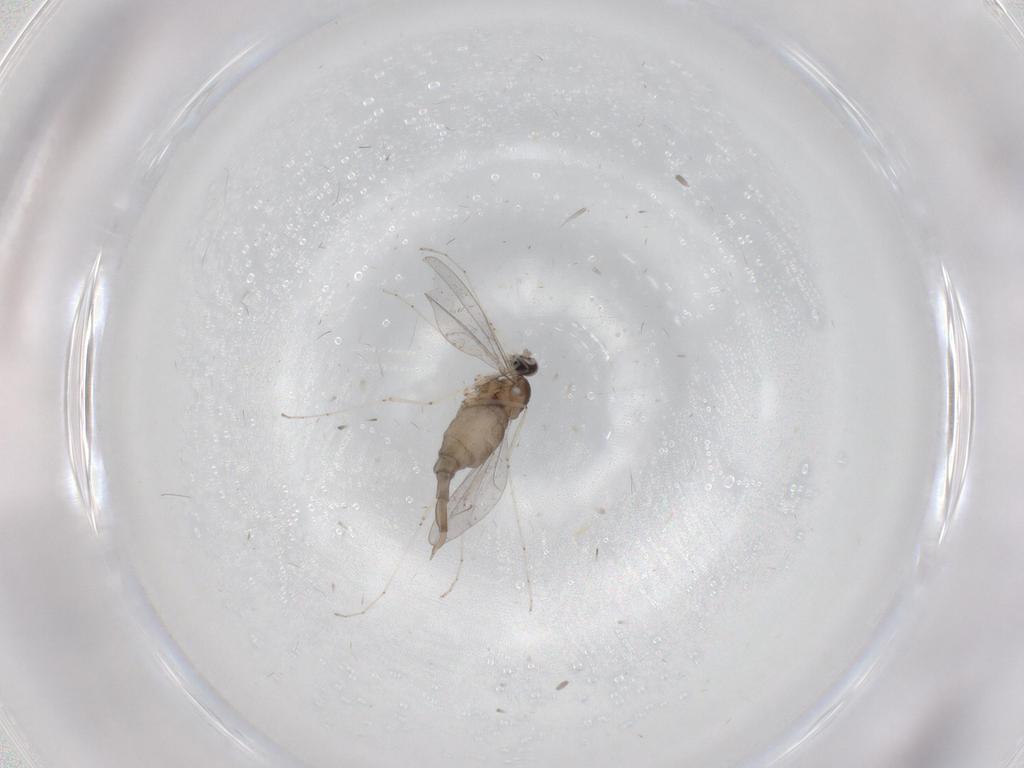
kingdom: Animalia
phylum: Arthropoda
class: Insecta
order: Diptera
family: Cecidomyiidae
